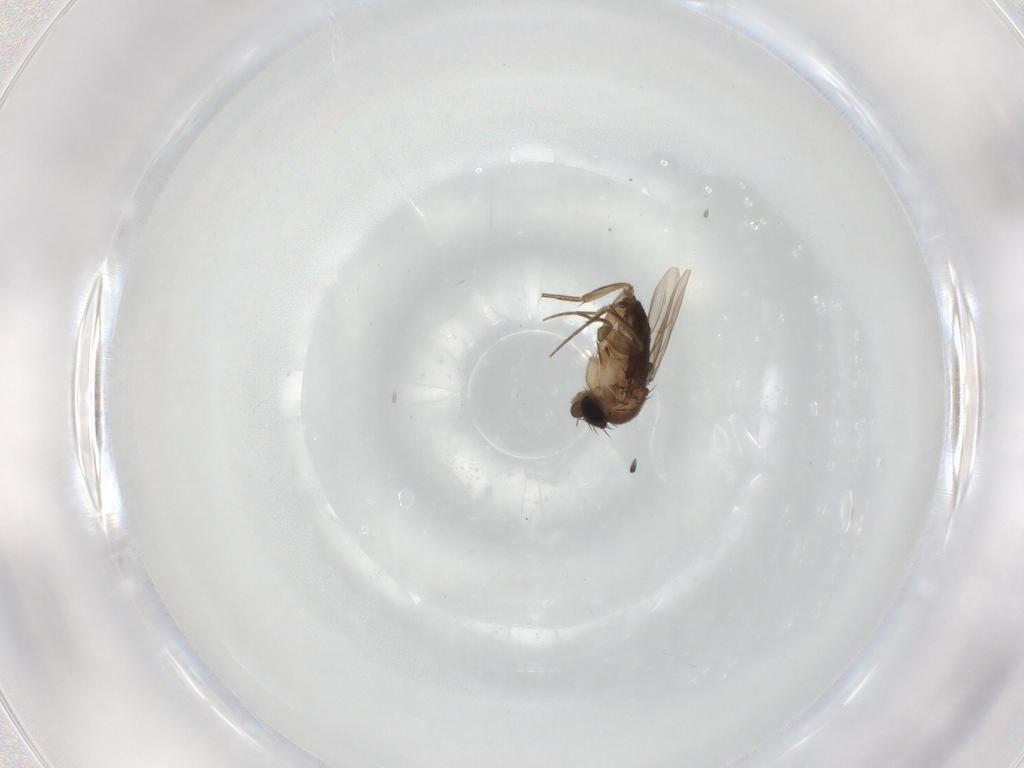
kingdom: Animalia
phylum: Arthropoda
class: Insecta
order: Diptera
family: Phoridae
